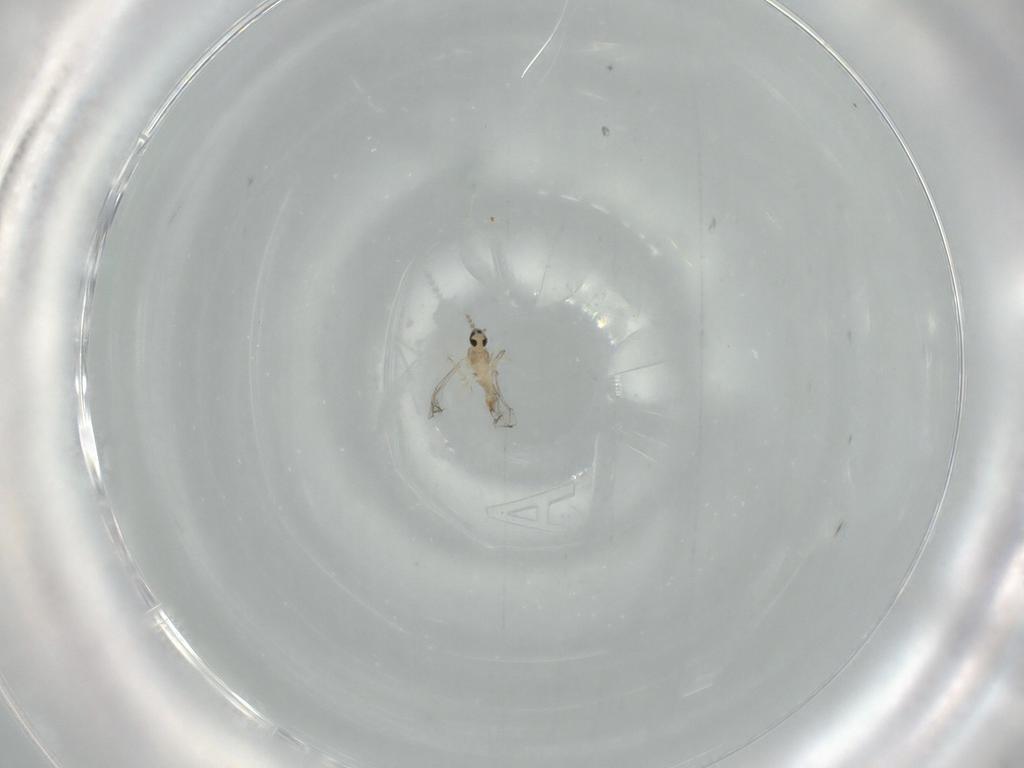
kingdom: Animalia
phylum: Arthropoda
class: Insecta
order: Diptera
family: Cecidomyiidae
